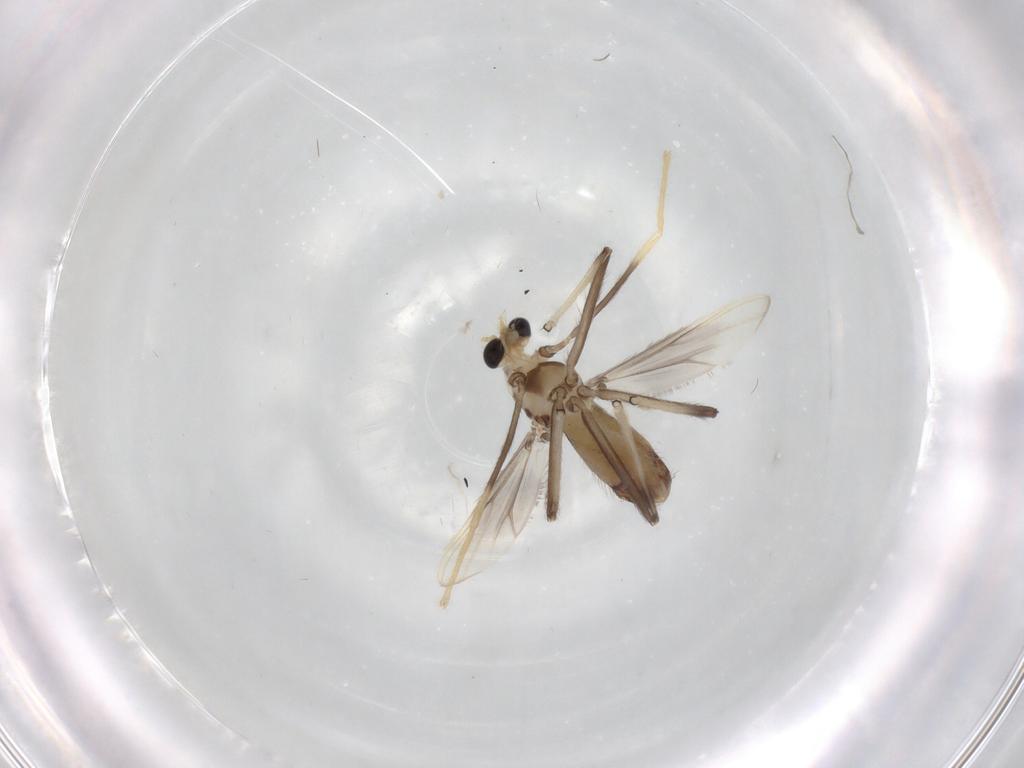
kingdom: Animalia
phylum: Arthropoda
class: Insecta
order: Diptera
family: Chironomidae
